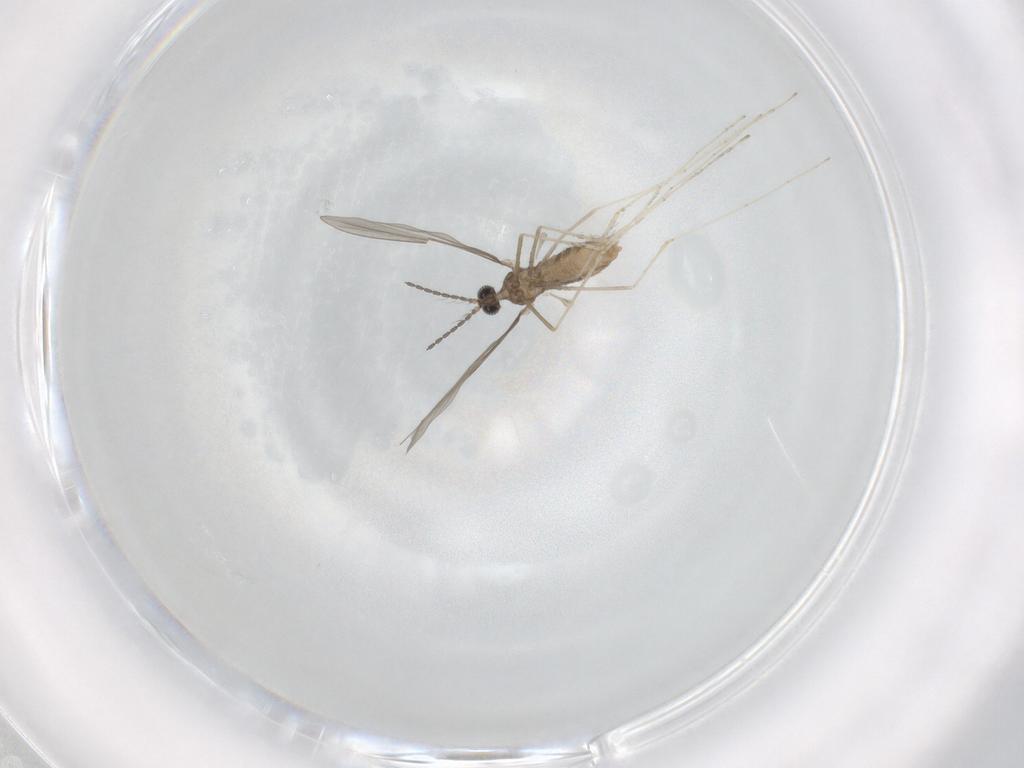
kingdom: Animalia
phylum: Arthropoda
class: Insecta
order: Diptera
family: Cecidomyiidae
